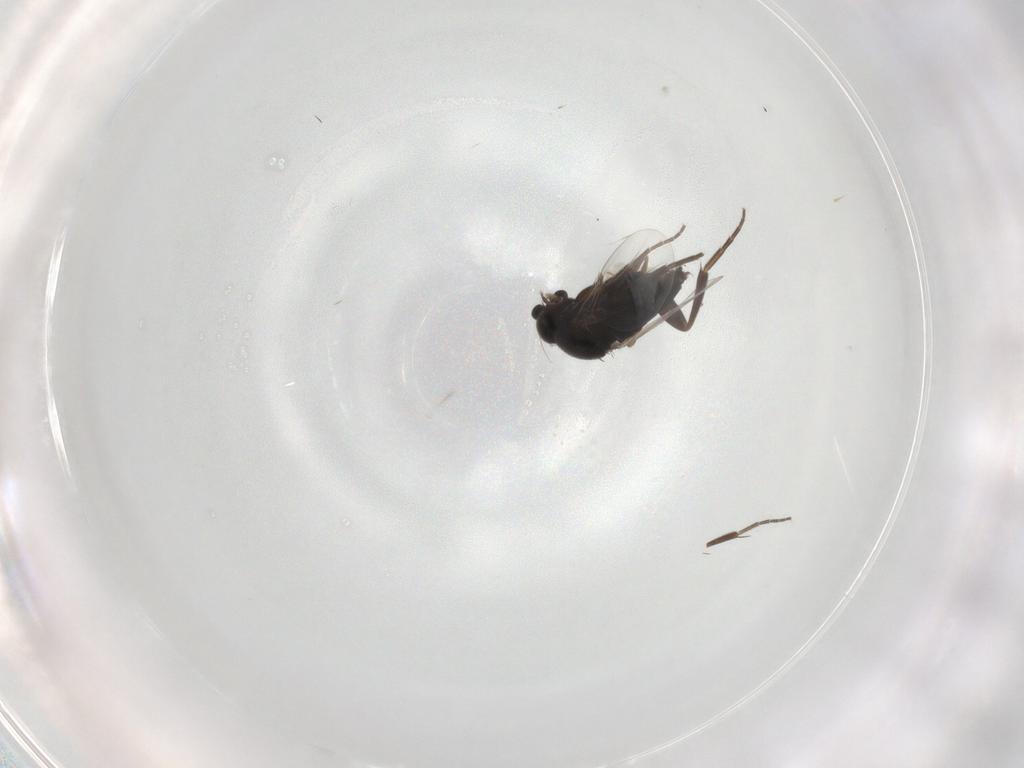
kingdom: Animalia
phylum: Arthropoda
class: Insecta
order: Diptera
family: Phoridae
